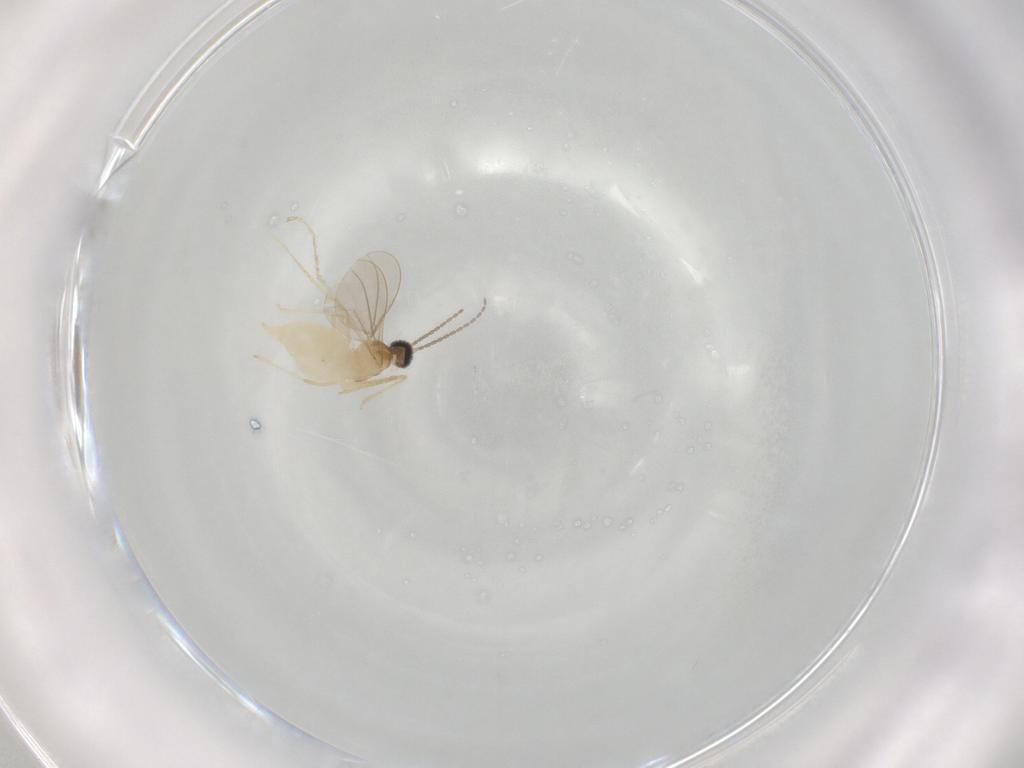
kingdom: Animalia
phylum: Arthropoda
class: Insecta
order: Diptera
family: Cecidomyiidae
